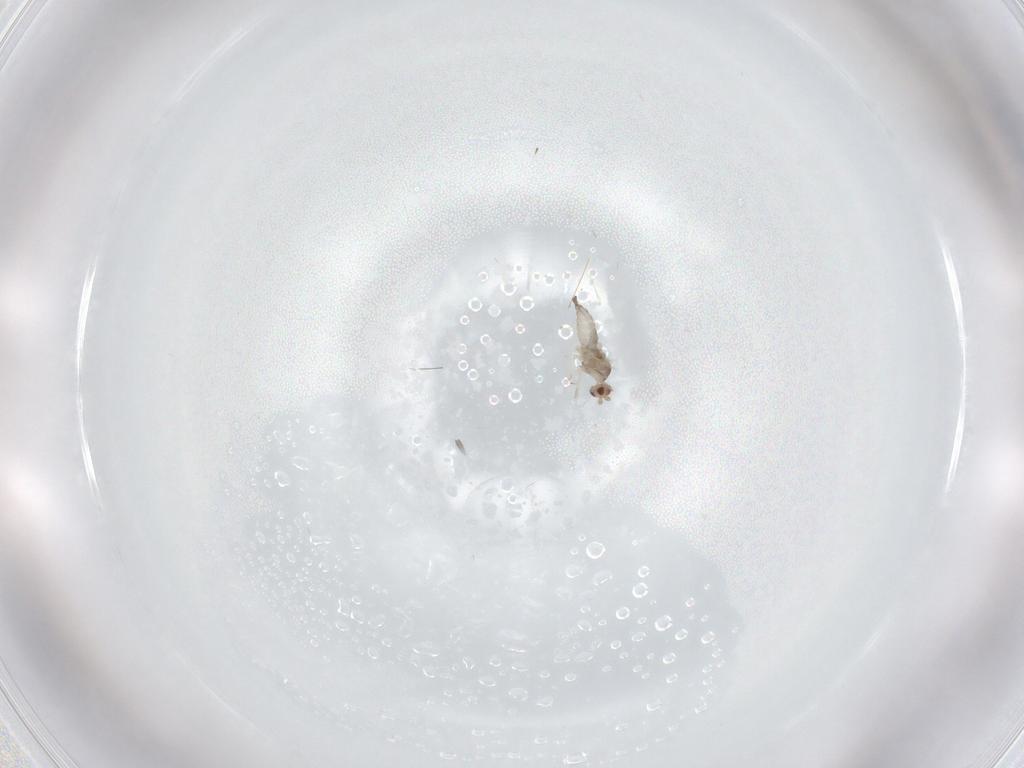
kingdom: Animalia
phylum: Arthropoda
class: Insecta
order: Diptera
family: Cecidomyiidae
